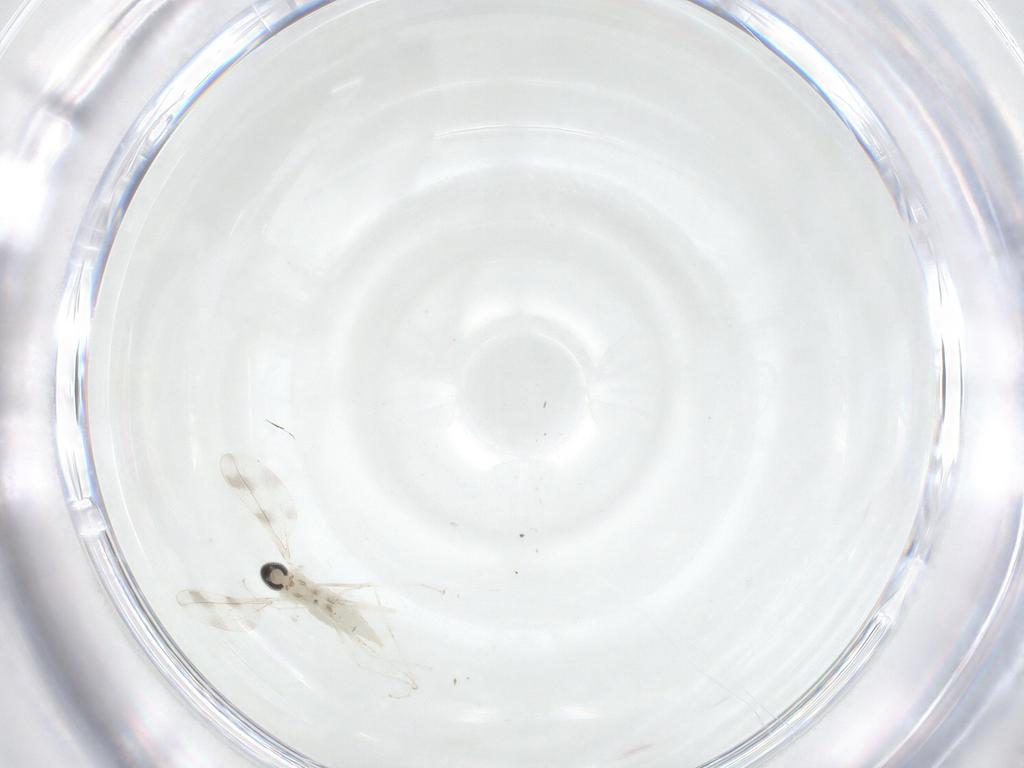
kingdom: Animalia
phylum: Arthropoda
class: Insecta
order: Diptera
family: Cecidomyiidae
